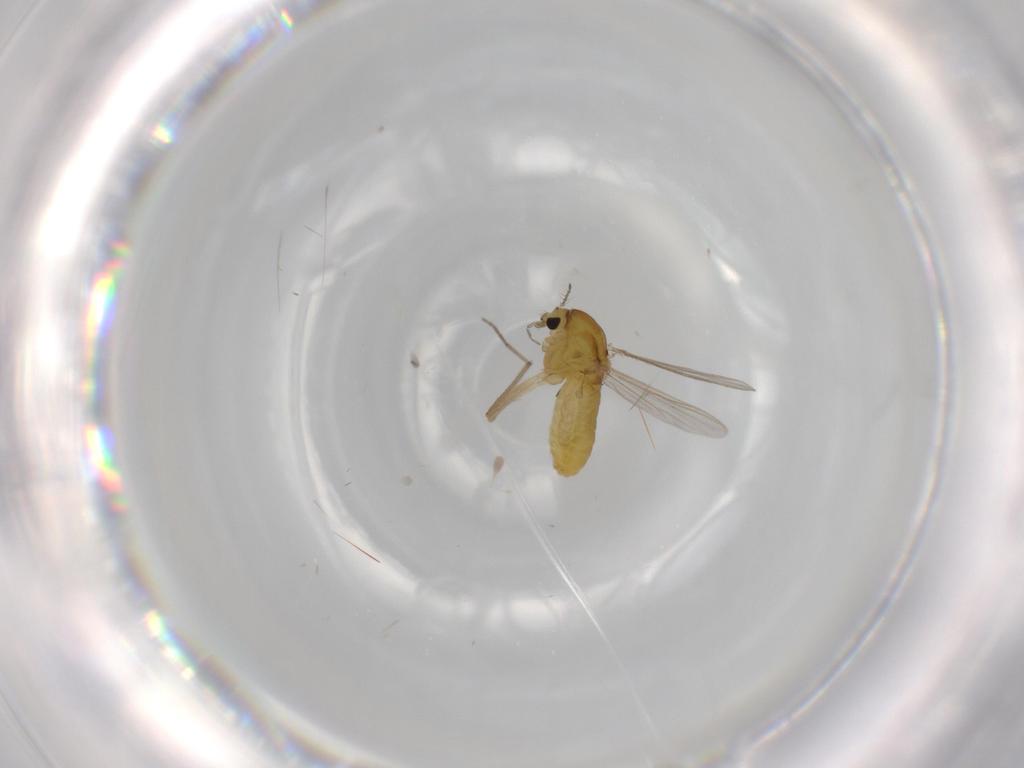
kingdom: Animalia
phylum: Arthropoda
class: Insecta
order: Diptera
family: Chironomidae
